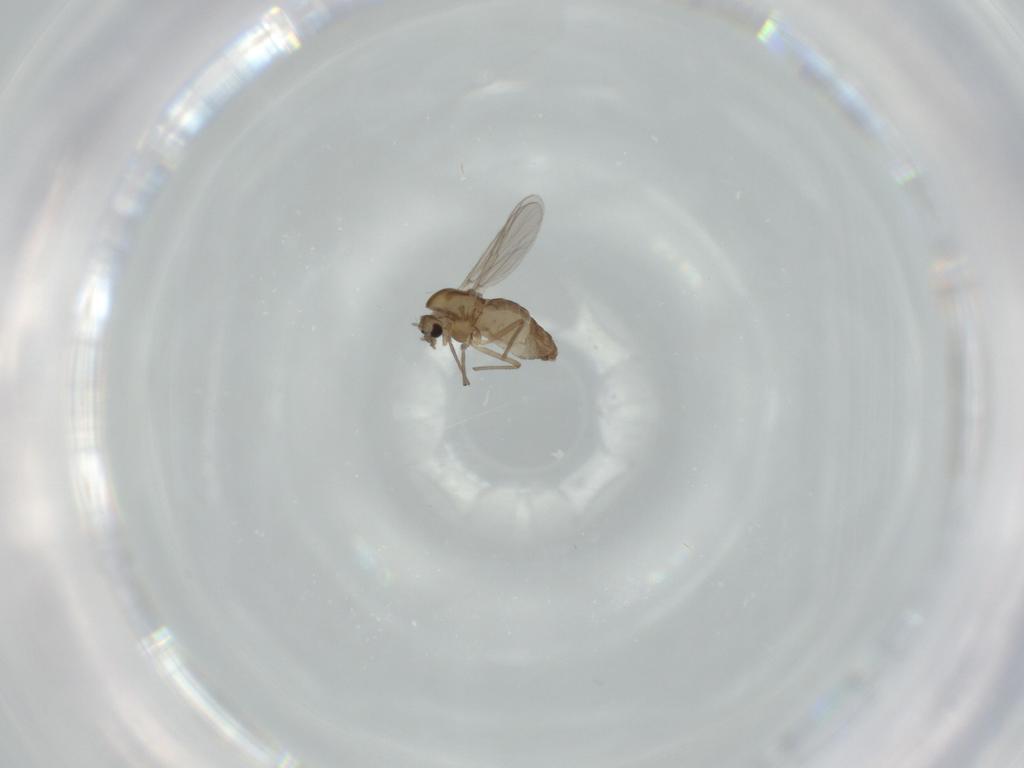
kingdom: Animalia
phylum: Arthropoda
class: Insecta
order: Diptera
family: Chironomidae
